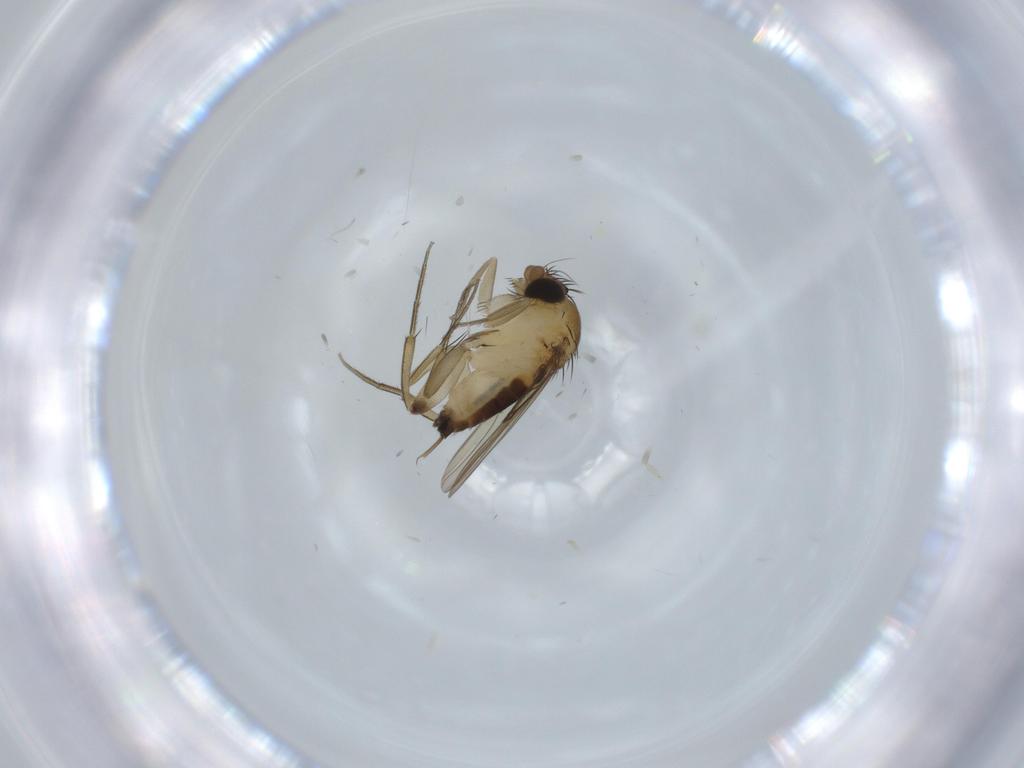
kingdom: Animalia
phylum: Arthropoda
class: Insecta
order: Diptera
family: Phoridae
